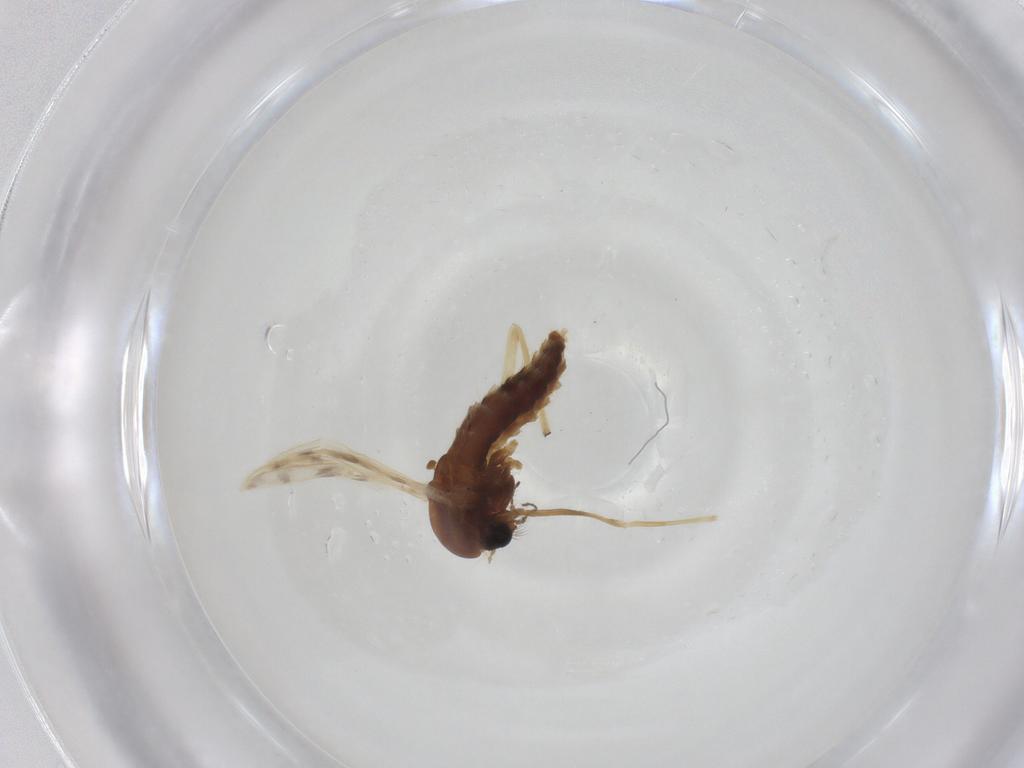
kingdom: Animalia
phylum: Arthropoda
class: Insecta
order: Diptera
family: Chironomidae
